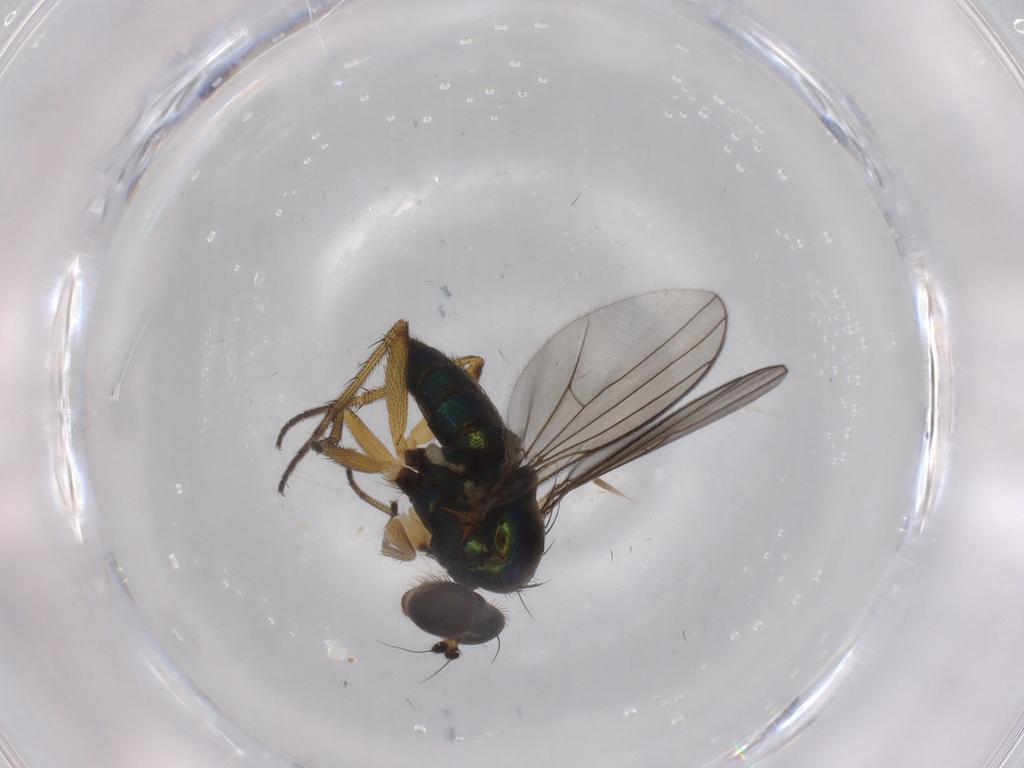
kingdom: Animalia
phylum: Arthropoda
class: Insecta
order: Diptera
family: Dolichopodidae
